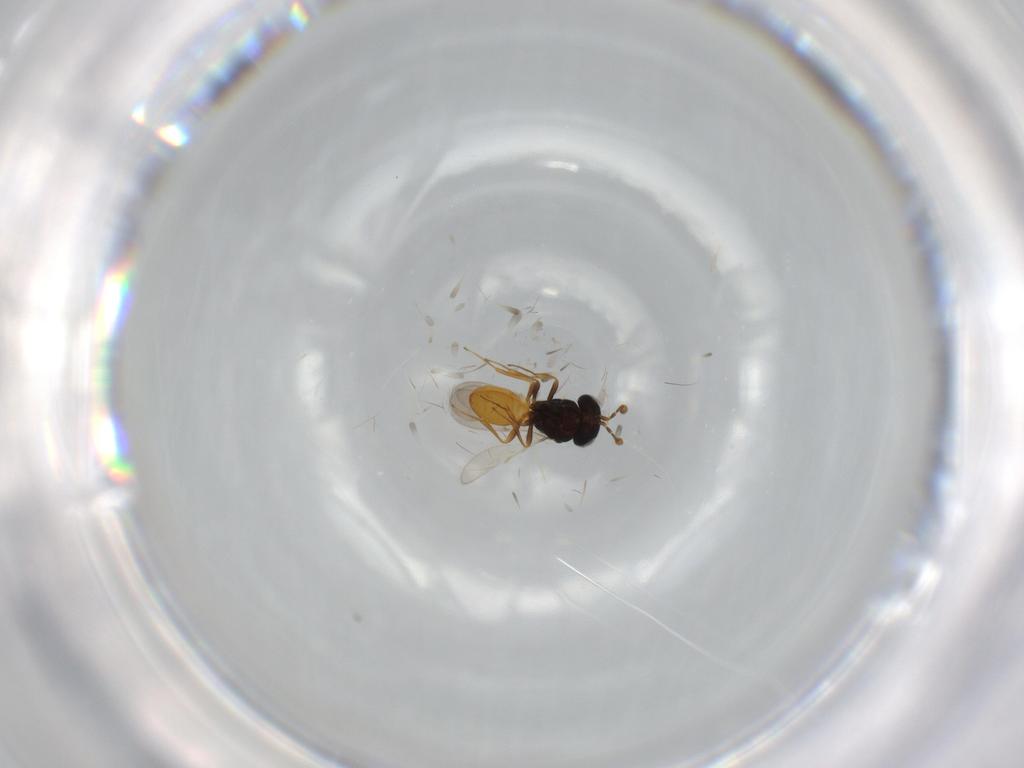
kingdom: Animalia
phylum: Arthropoda
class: Insecta
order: Hymenoptera
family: Scelionidae
